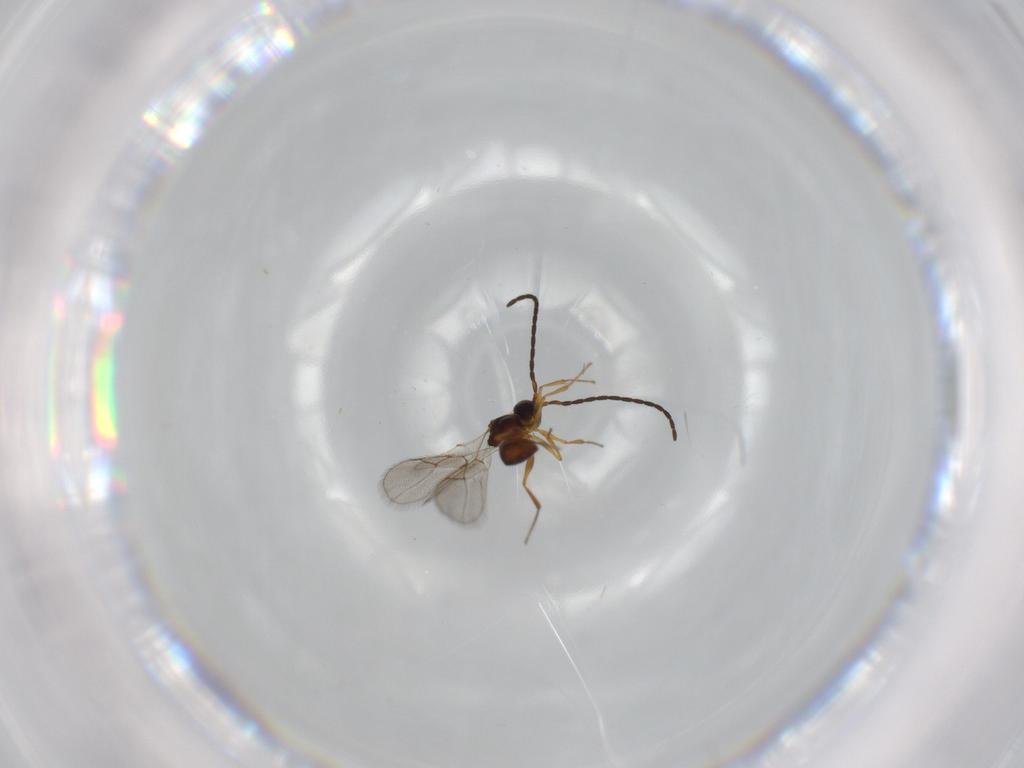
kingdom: Animalia
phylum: Arthropoda
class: Insecta
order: Hymenoptera
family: Figitidae
